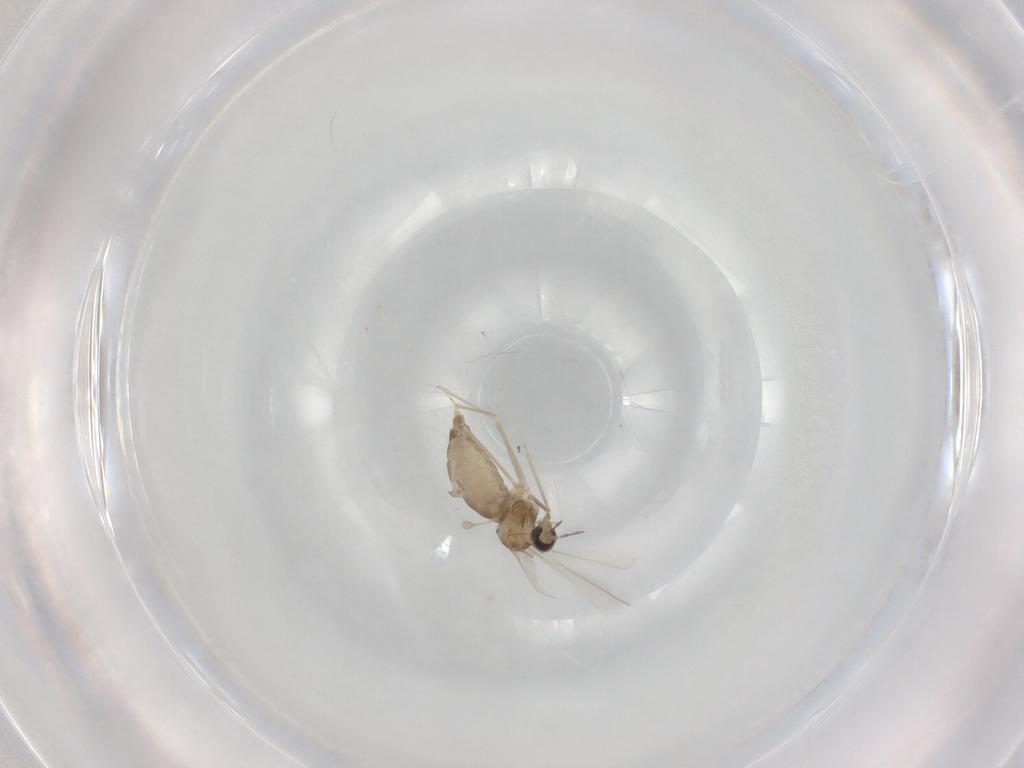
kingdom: Animalia
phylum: Arthropoda
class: Insecta
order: Diptera
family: Cecidomyiidae
